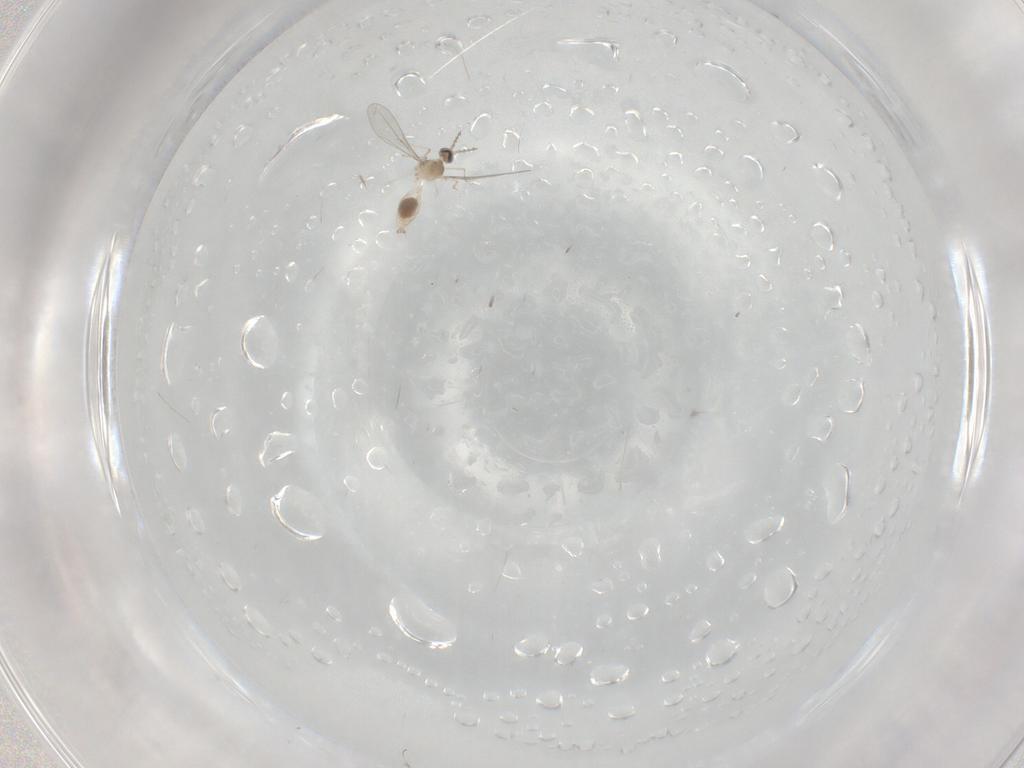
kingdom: Animalia
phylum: Arthropoda
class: Insecta
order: Diptera
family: Cecidomyiidae
